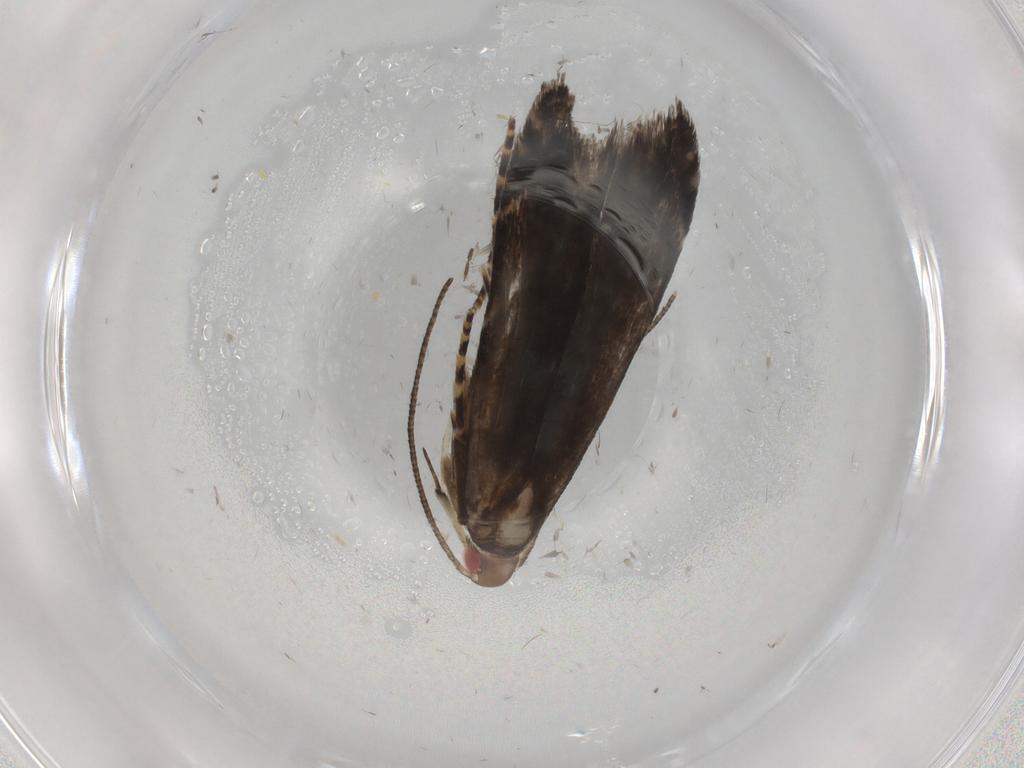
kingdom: Animalia
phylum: Arthropoda
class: Insecta
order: Lepidoptera
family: Gelechiidae
